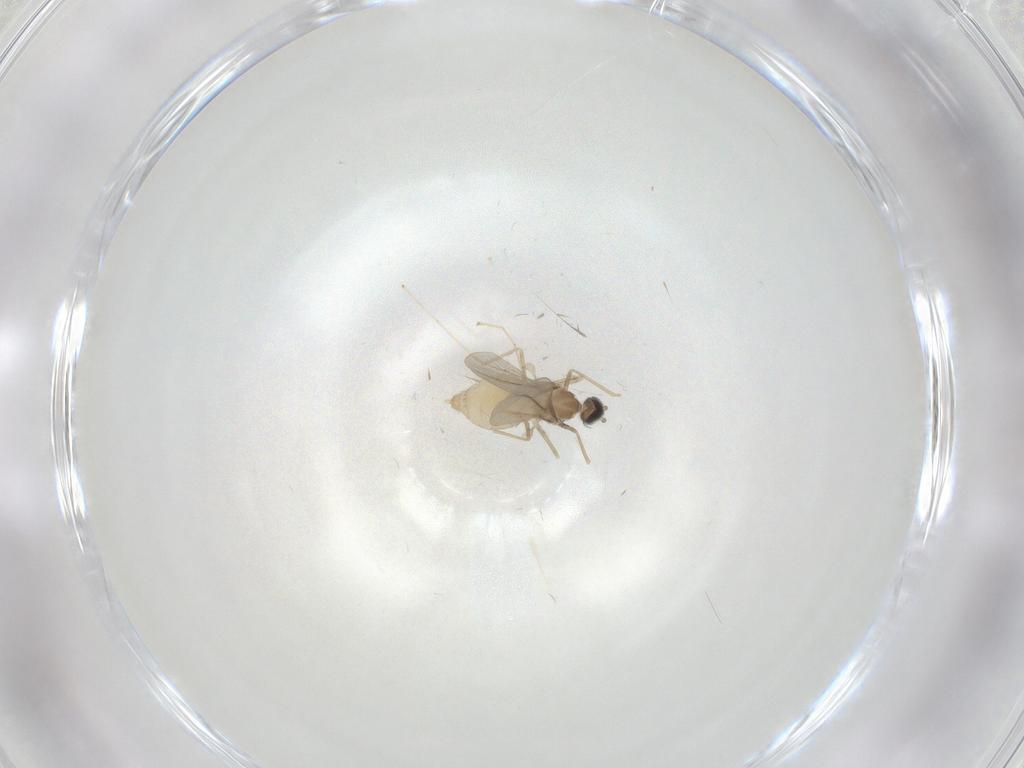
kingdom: Animalia
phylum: Arthropoda
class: Insecta
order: Diptera
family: Cecidomyiidae
